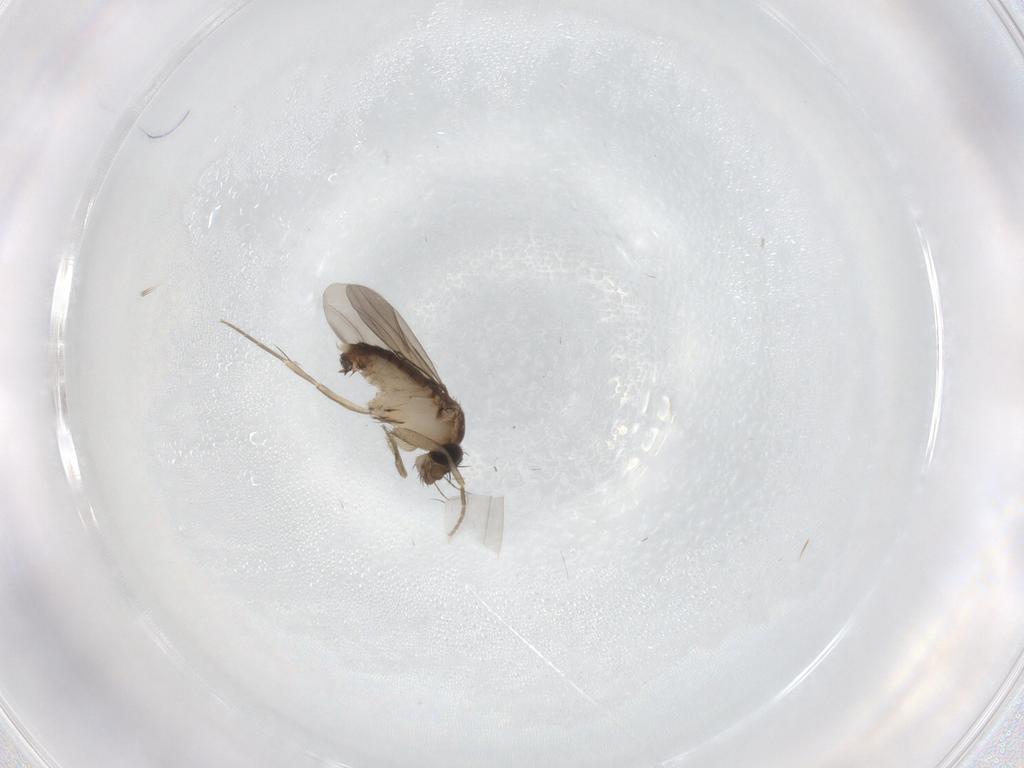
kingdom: Animalia
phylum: Arthropoda
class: Insecta
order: Diptera
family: Phoridae
